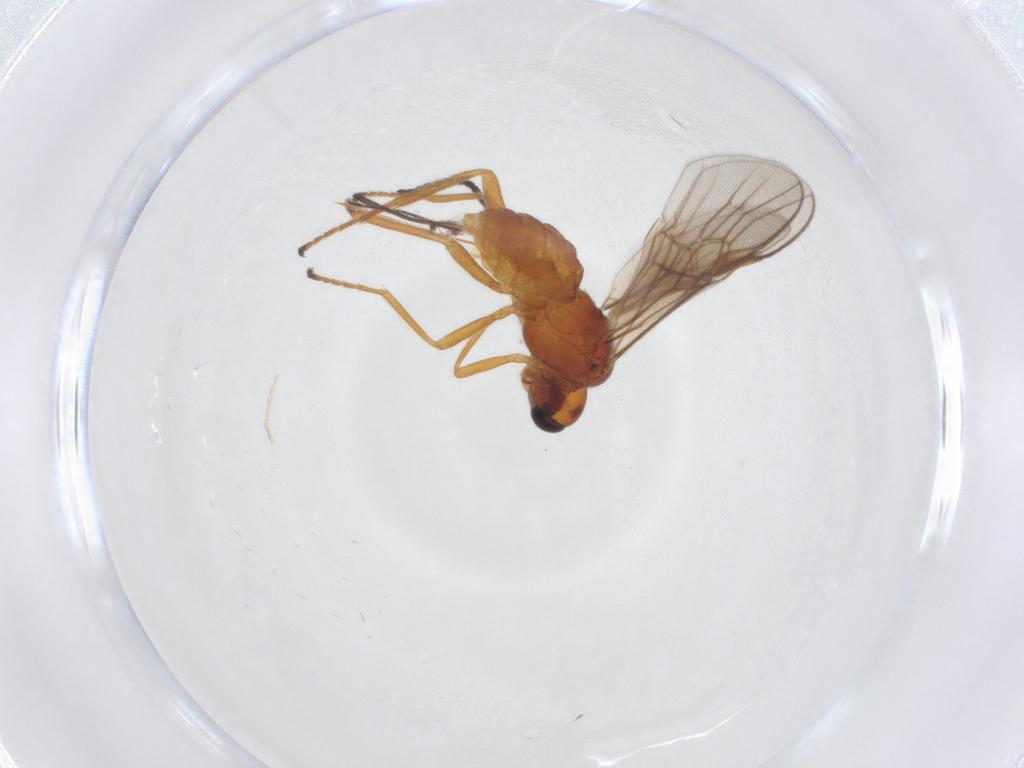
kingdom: Animalia
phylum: Arthropoda
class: Insecta
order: Hymenoptera
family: Braconidae
